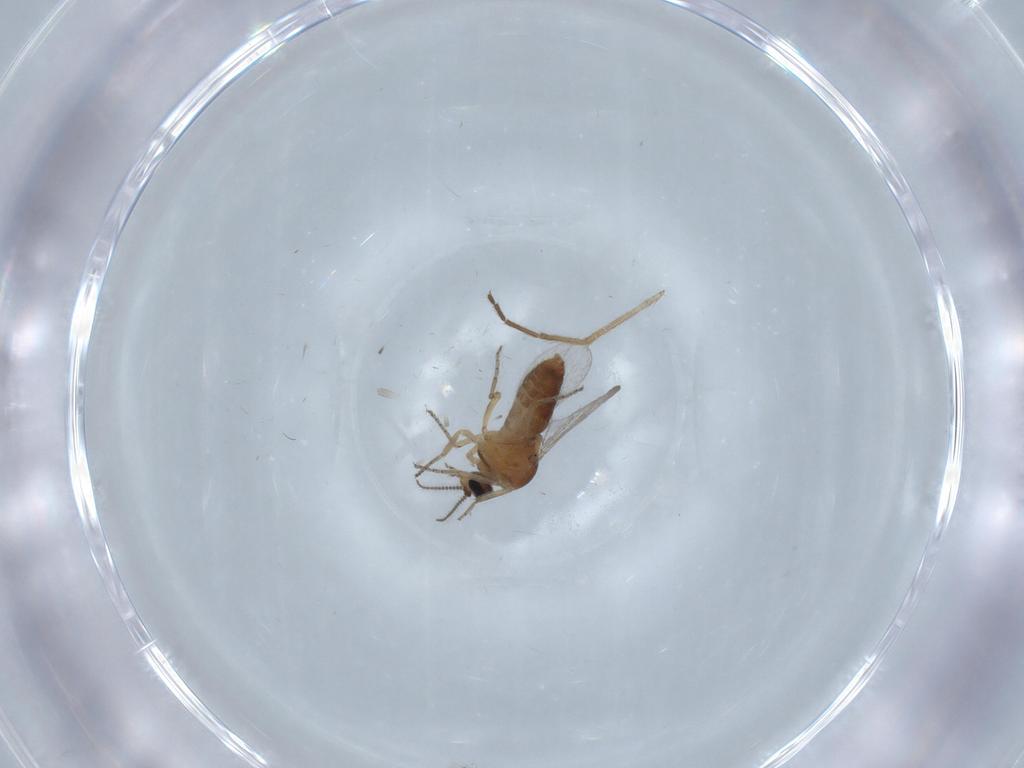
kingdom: Animalia
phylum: Arthropoda
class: Insecta
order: Diptera
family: Ceratopogonidae
